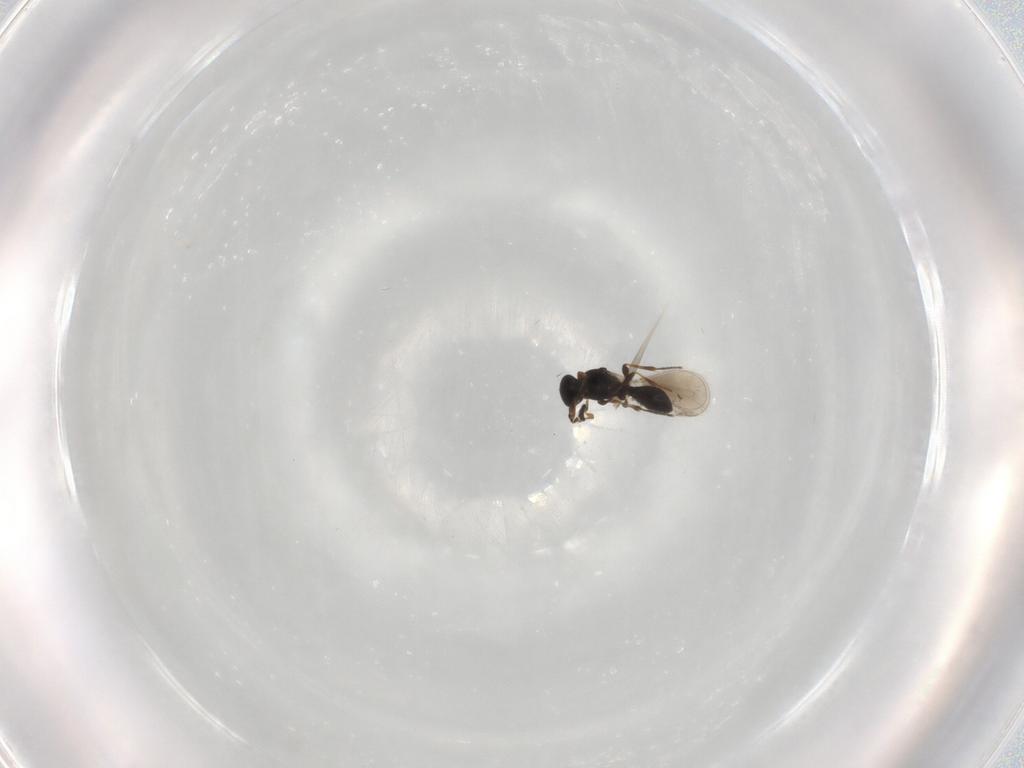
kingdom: Animalia
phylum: Arthropoda
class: Insecta
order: Hymenoptera
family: Platygastridae
